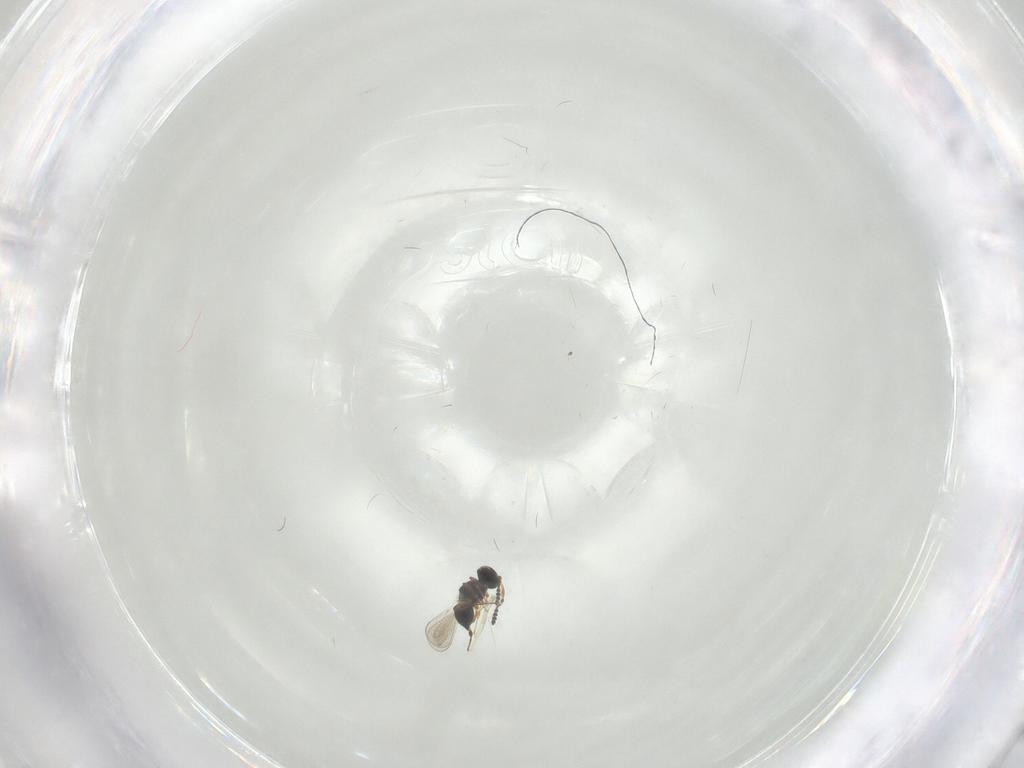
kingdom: Animalia
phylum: Arthropoda
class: Insecta
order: Hymenoptera
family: Platygastridae
